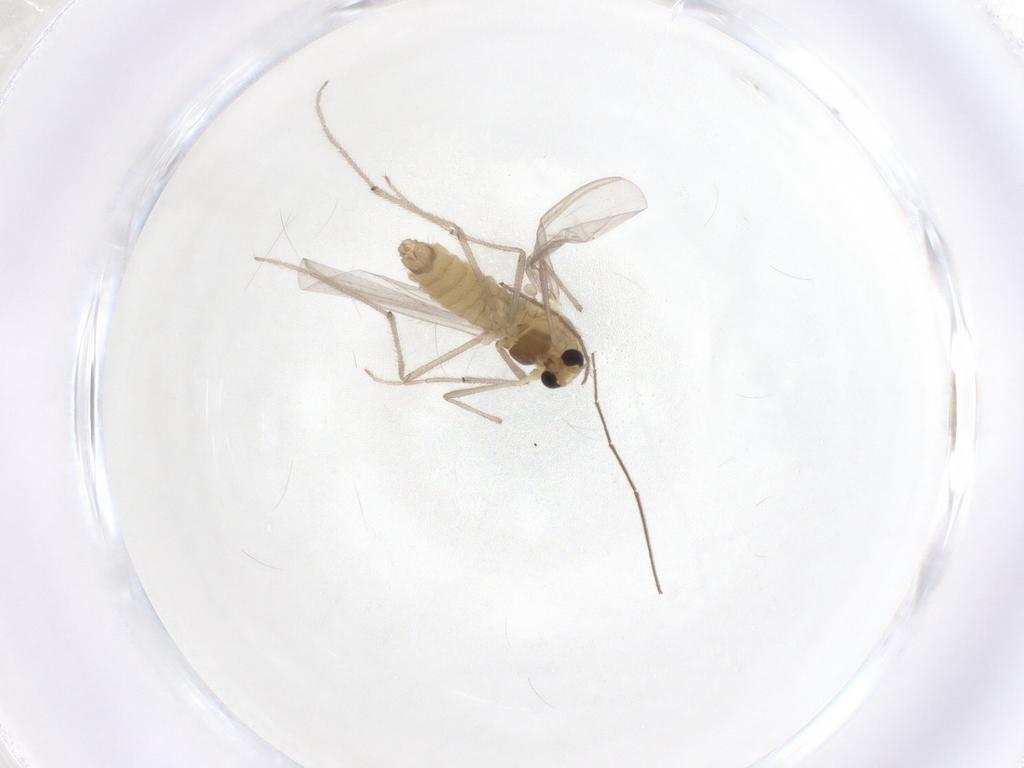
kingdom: Animalia
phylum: Arthropoda
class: Insecta
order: Diptera
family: Chironomidae
